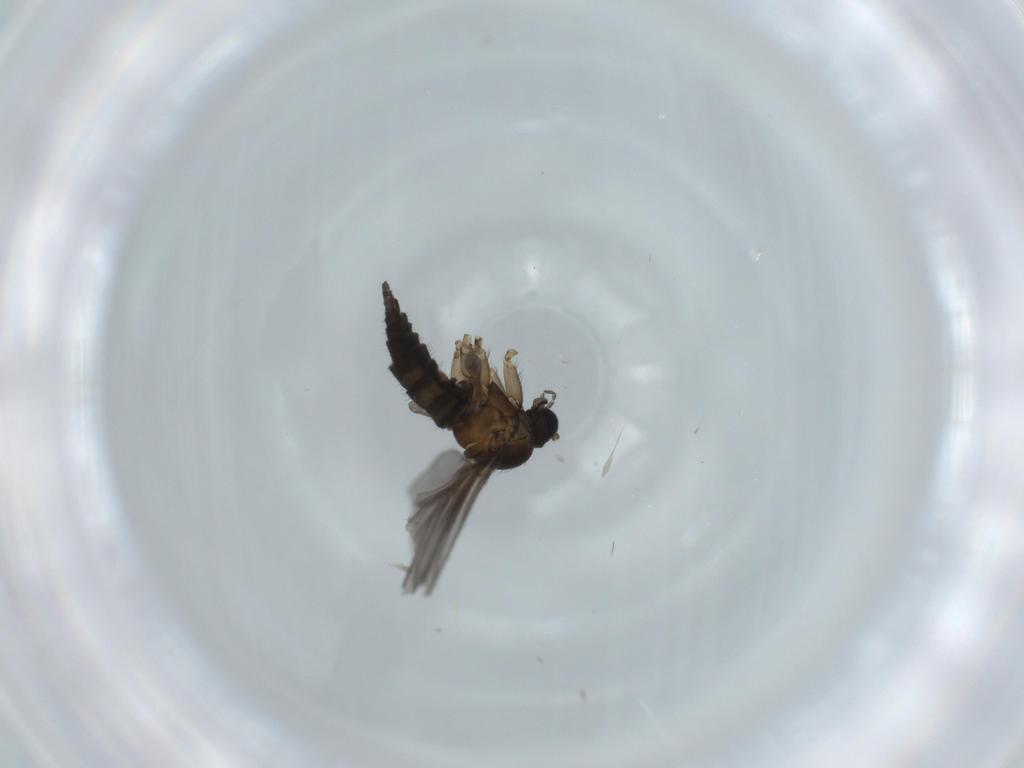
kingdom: Animalia
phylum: Arthropoda
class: Insecta
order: Diptera
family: Sciaridae
